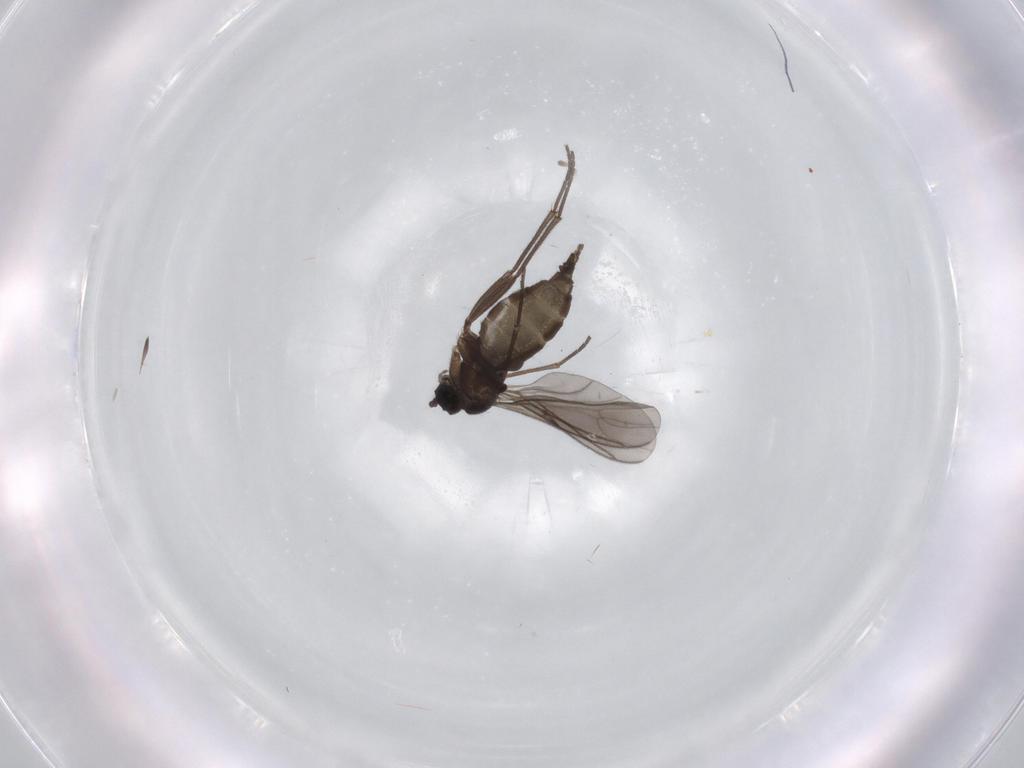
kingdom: Animalia
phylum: Arthropoda
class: Insecta
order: Diptera
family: Sciaridae
